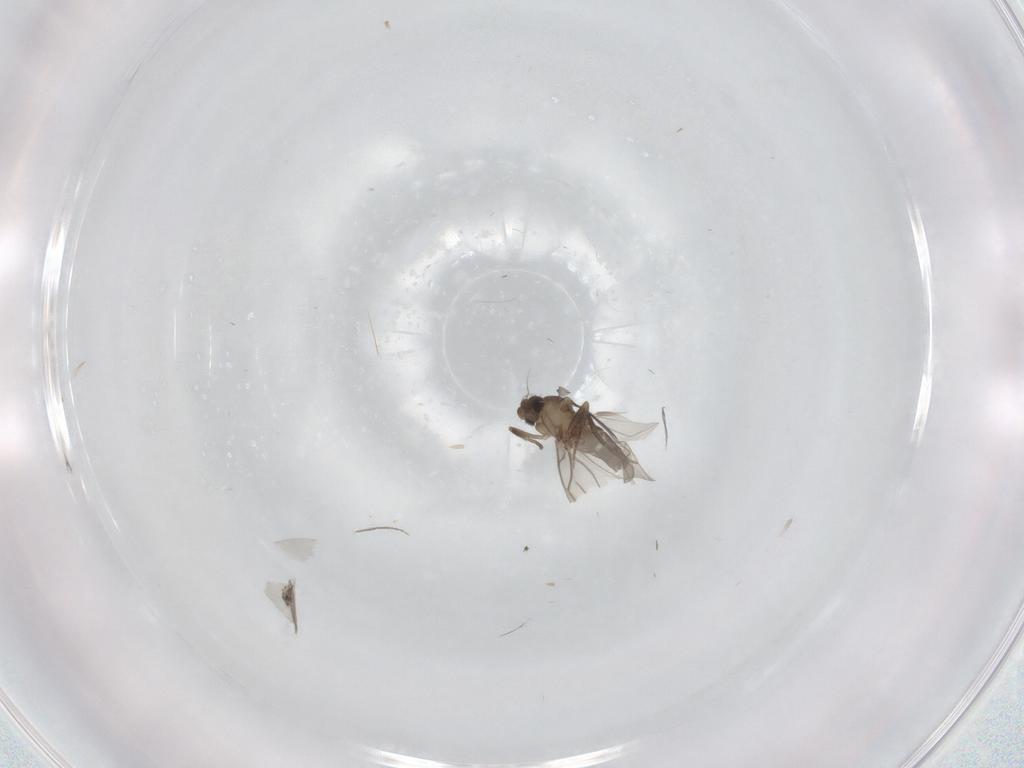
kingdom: Animalia
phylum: Arthropoda
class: Insecta
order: Diptera
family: Phoridae
